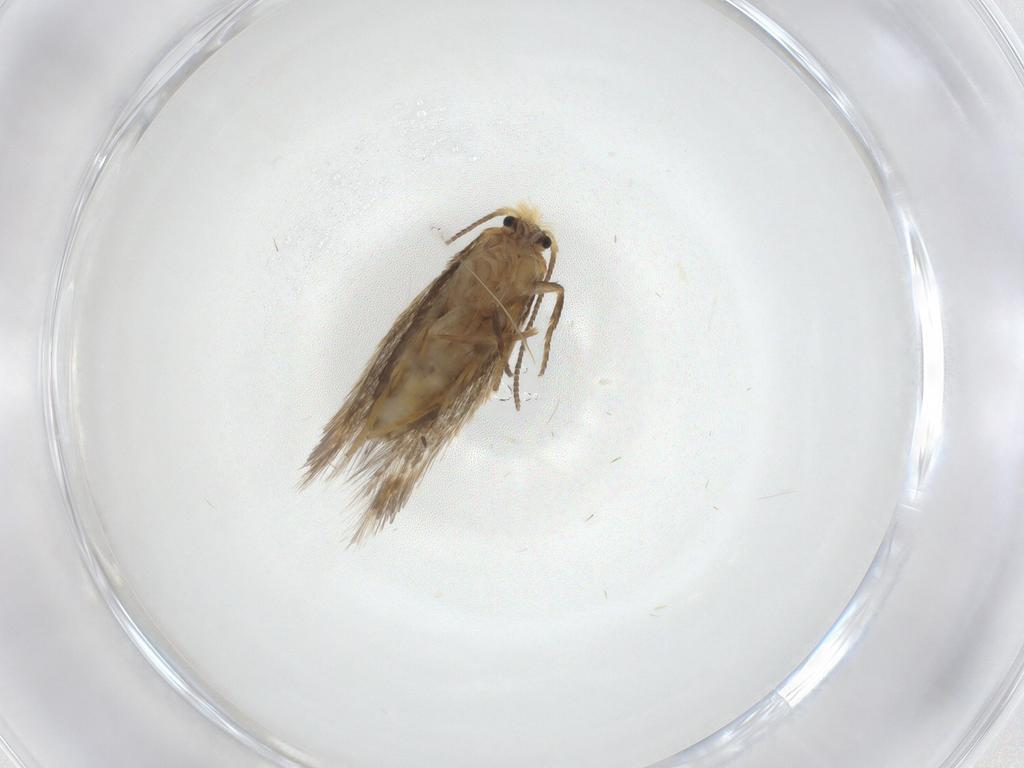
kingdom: Animalia
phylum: Arthropoda
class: Insecta
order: Lepidoptera
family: Nepticulidae
